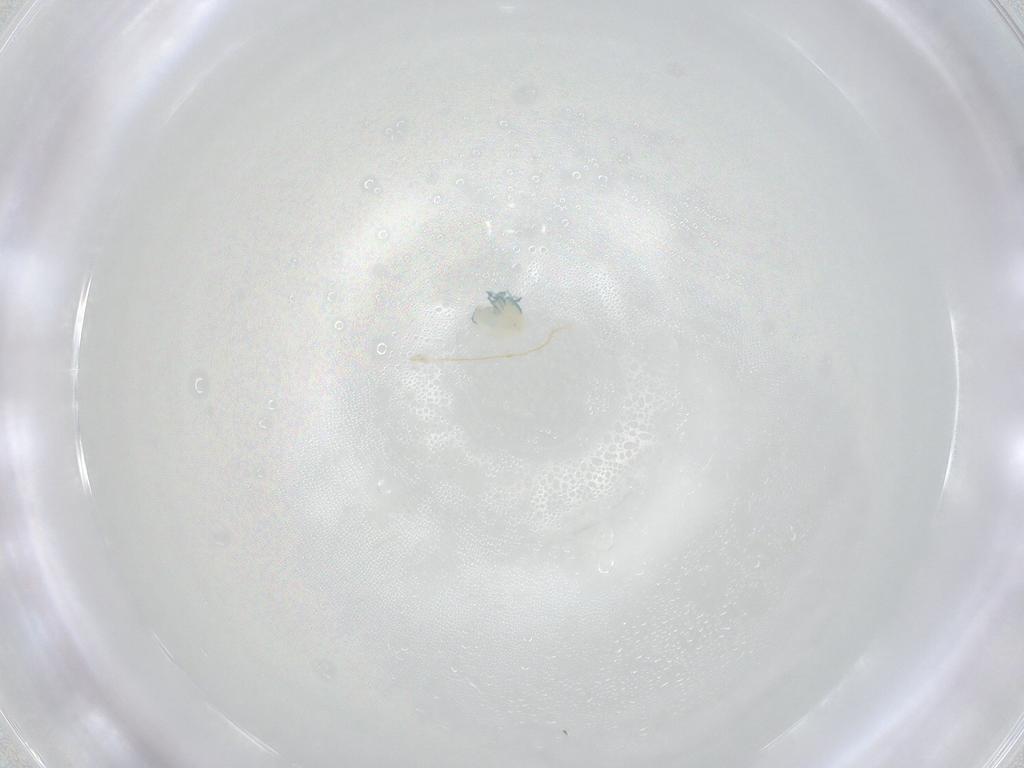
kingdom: Animalia
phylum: Arthropoda
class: Arachnida
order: Trombidiformes
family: Arrenuridae
